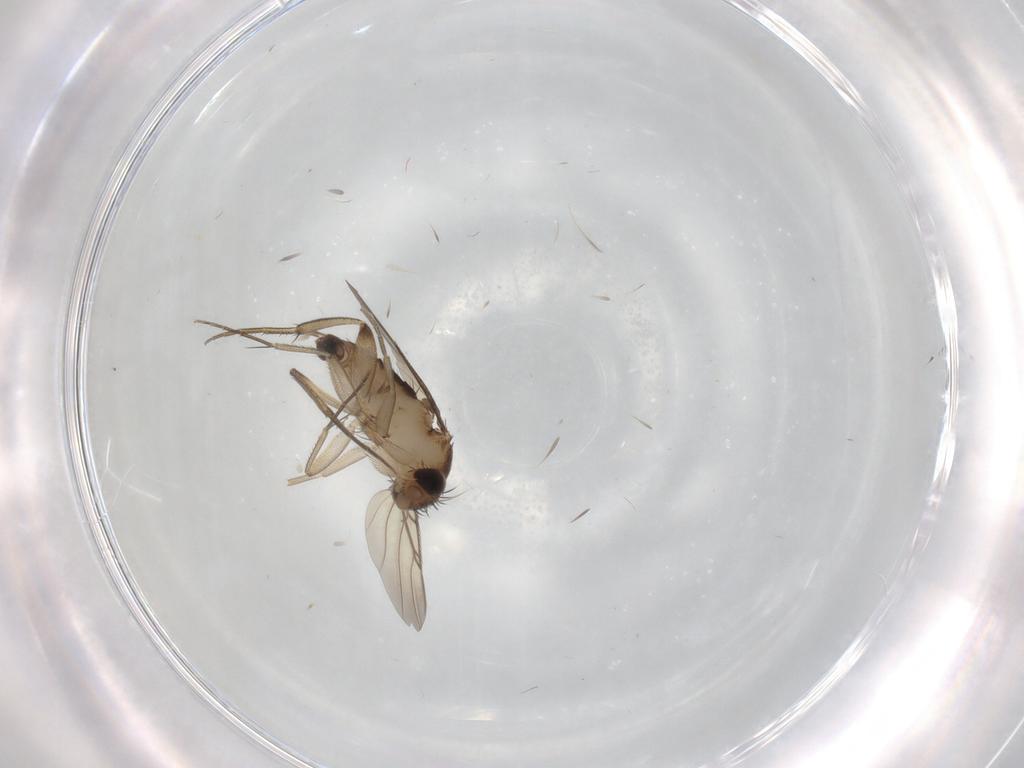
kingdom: Animalia
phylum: Arthropoda
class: Insecta
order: Diptera
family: Phoridae
